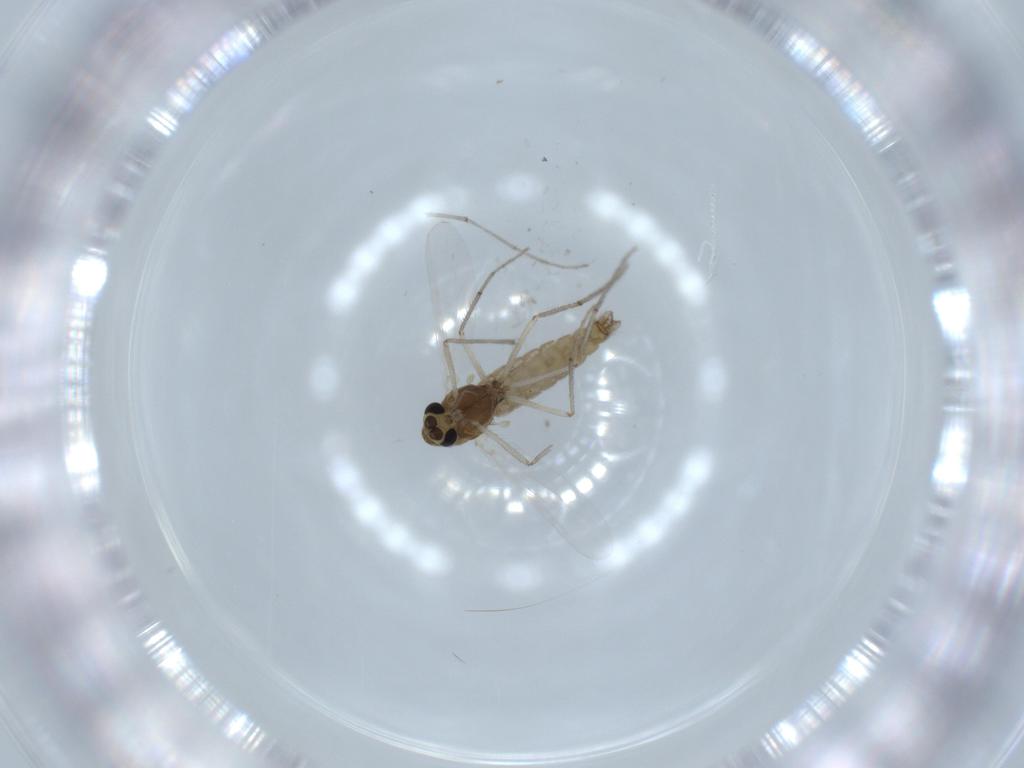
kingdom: Animalia
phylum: Arthropoda
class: Insecta
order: Diptera
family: Chironomidae
